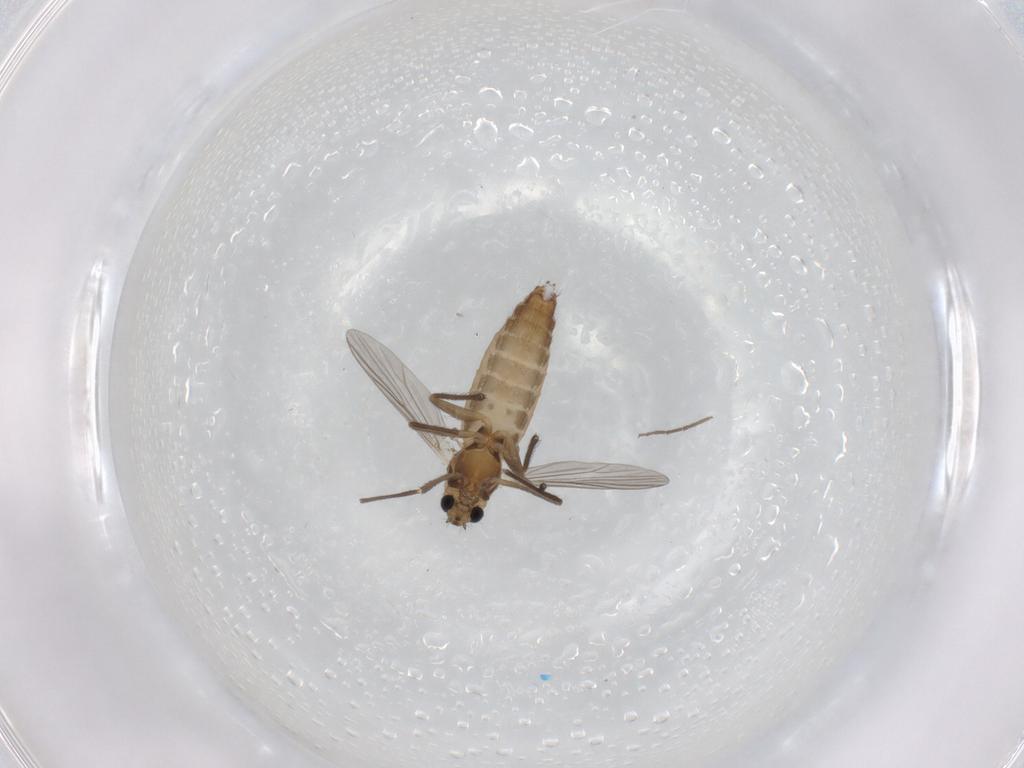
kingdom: Animalia
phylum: Arthropoda
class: Insecta
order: Diptera
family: Chironomidae
